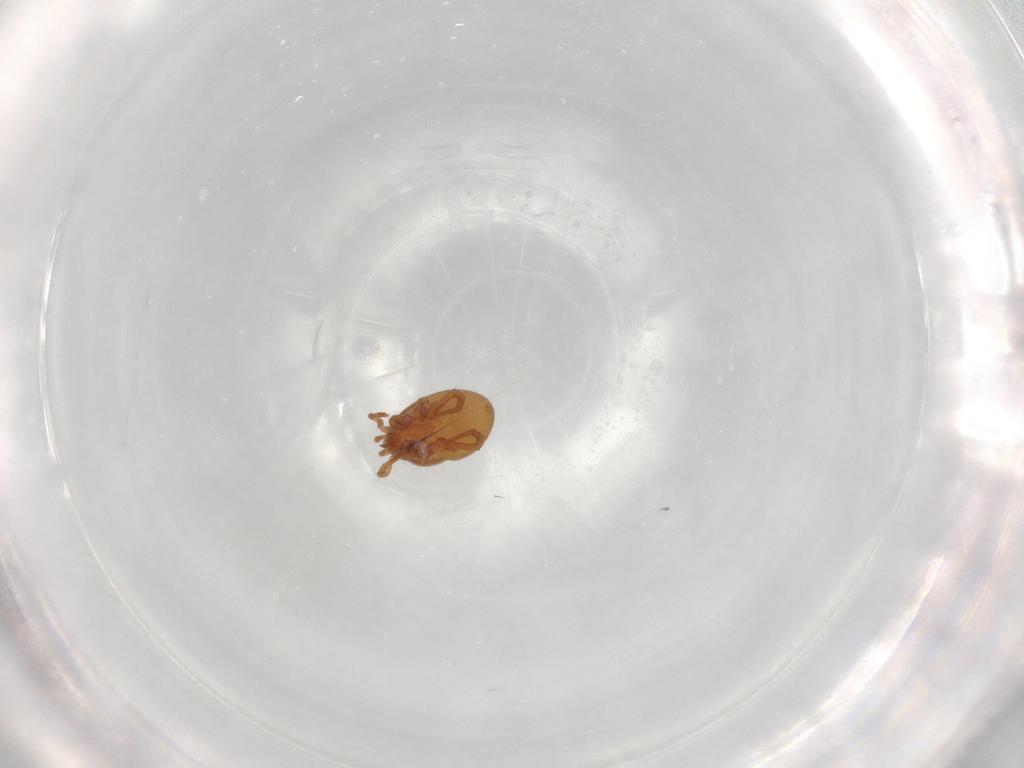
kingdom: Animalia
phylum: Arthropoda
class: Arachnida
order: Mesostigmata
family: Parasitidae
